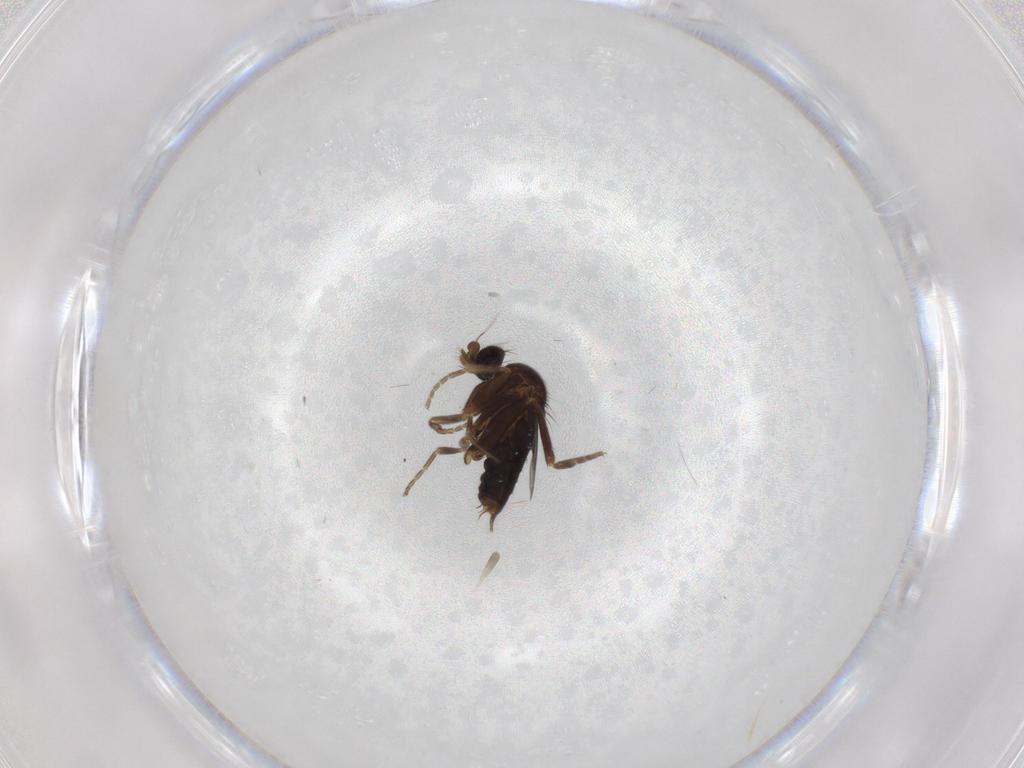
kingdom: Animalia
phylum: Arthropoda
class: Insecta
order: Diptera
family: Phoridae
